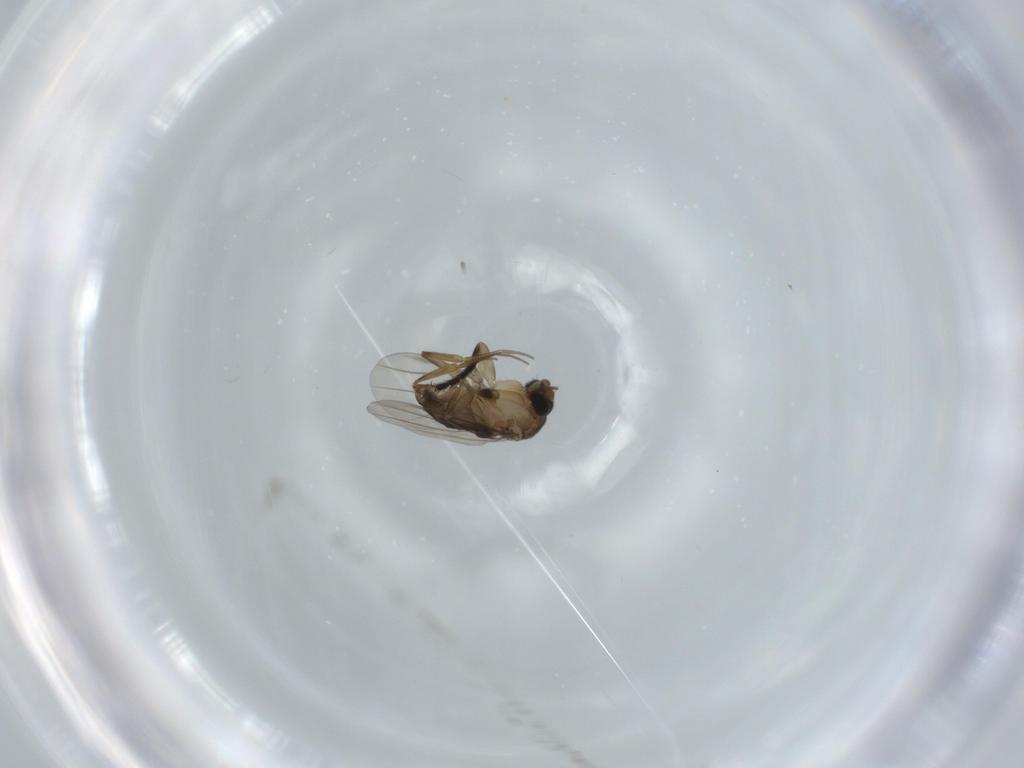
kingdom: Animalia
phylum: Arthropoda
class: Insecta
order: Diptera
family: Phoridae
